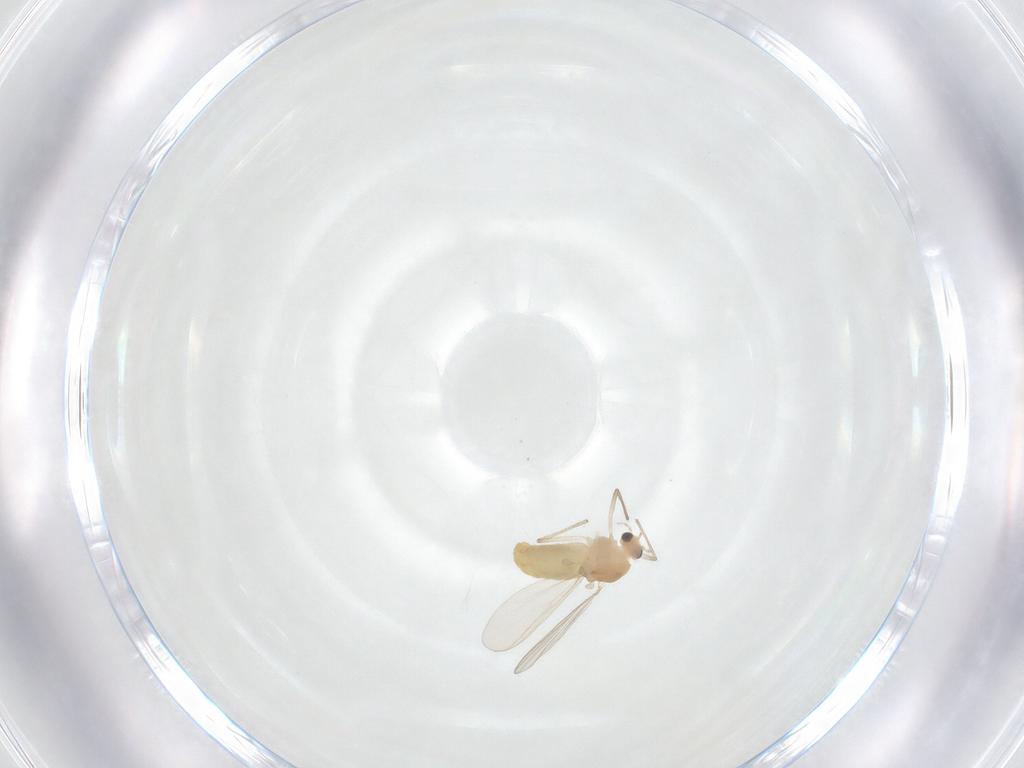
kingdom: Animalia
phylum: Arthropoda
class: Insecta
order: Diptera
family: Chironomidae
